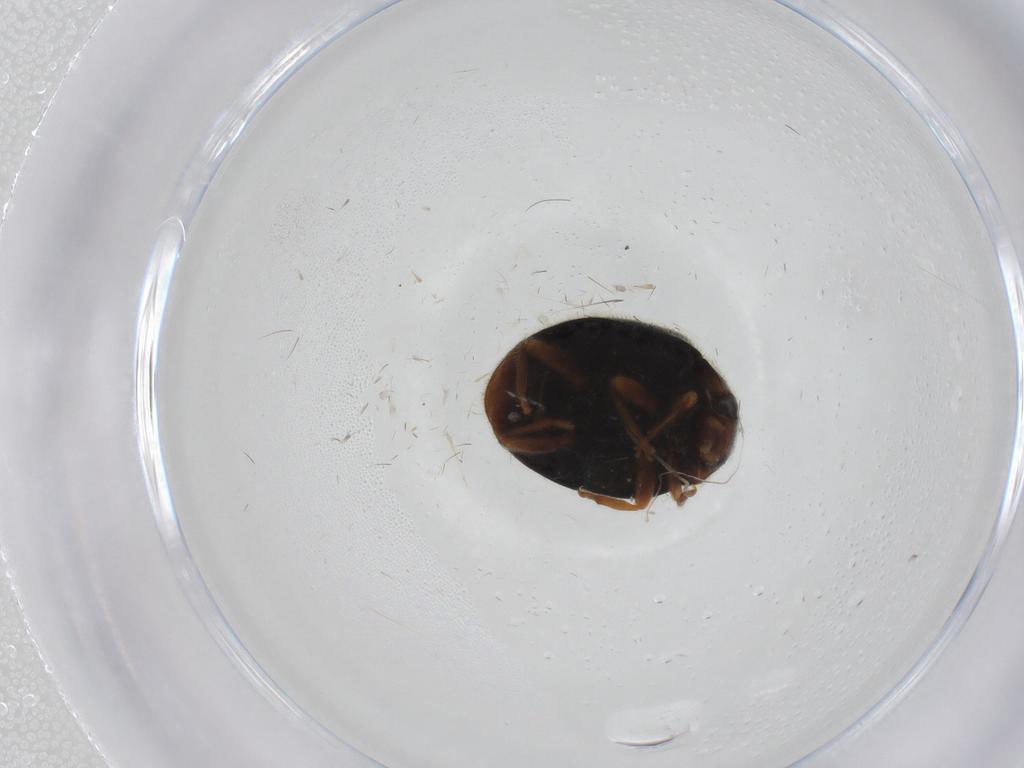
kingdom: Animalia
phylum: Arthropoda
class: Insecta
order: Coleoptera
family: Coccinellidae
